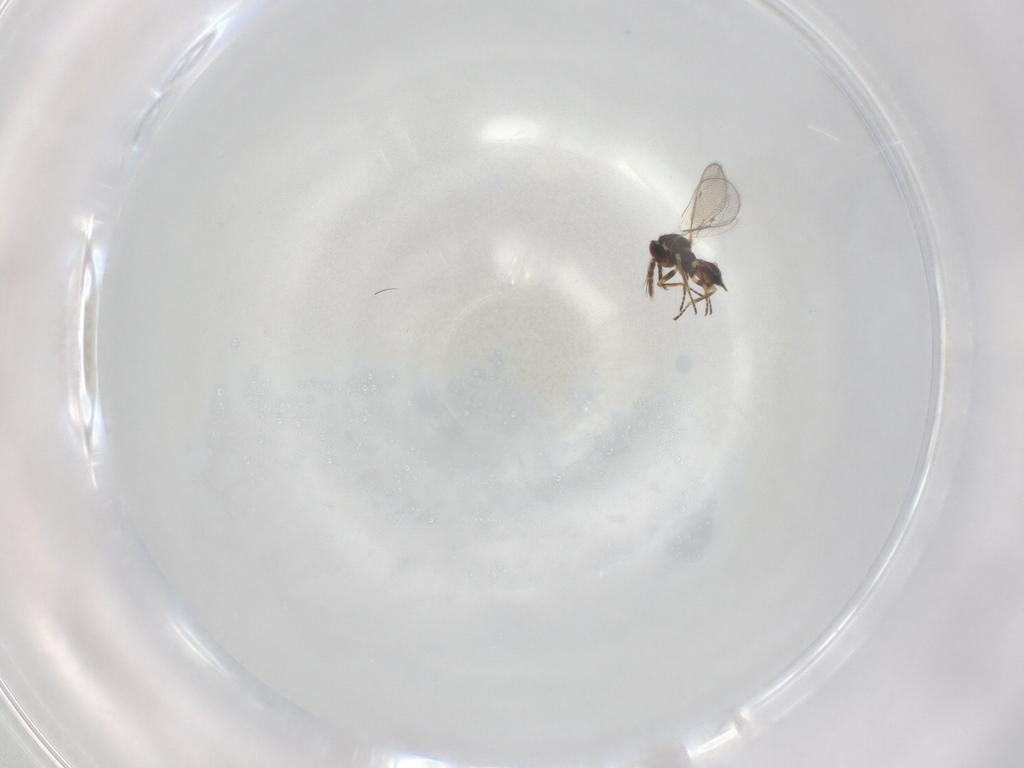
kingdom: Animalia
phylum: Arthropoda
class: Insecta
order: Hymenoptera
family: Eulophidae
